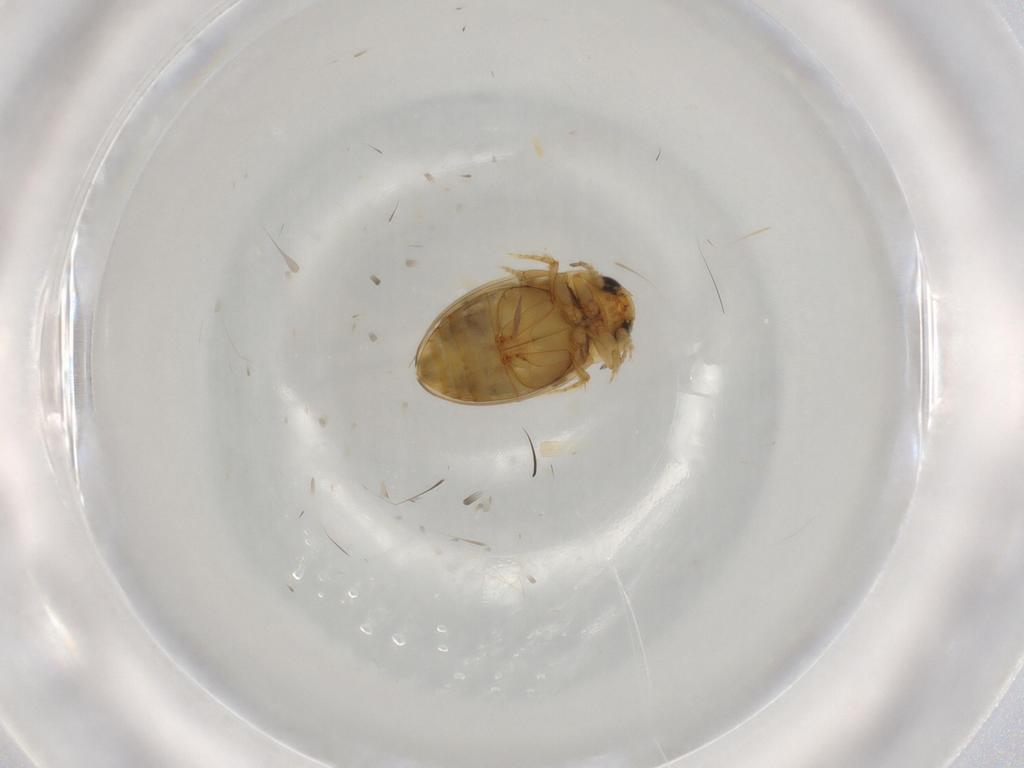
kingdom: Animalia
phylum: Arthropoda
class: Insecta
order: Coleoptera
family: Dytiscidae
